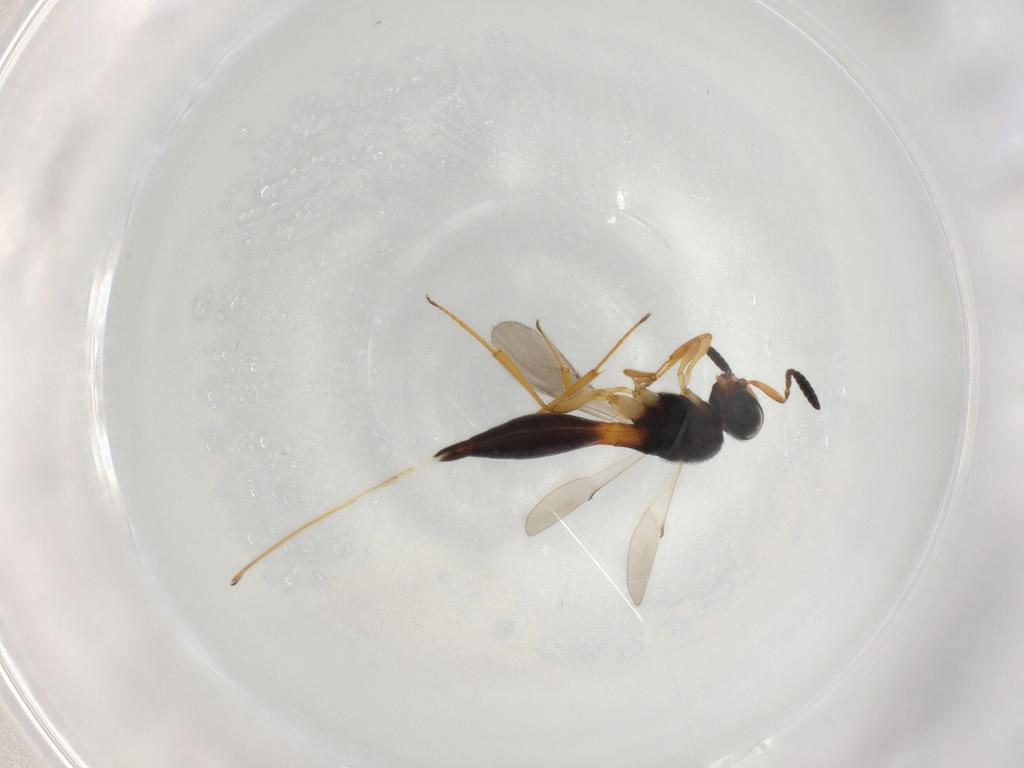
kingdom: Animalia
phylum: Arthropoda
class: Insecta
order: Hymenoptera
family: Scelionidae
